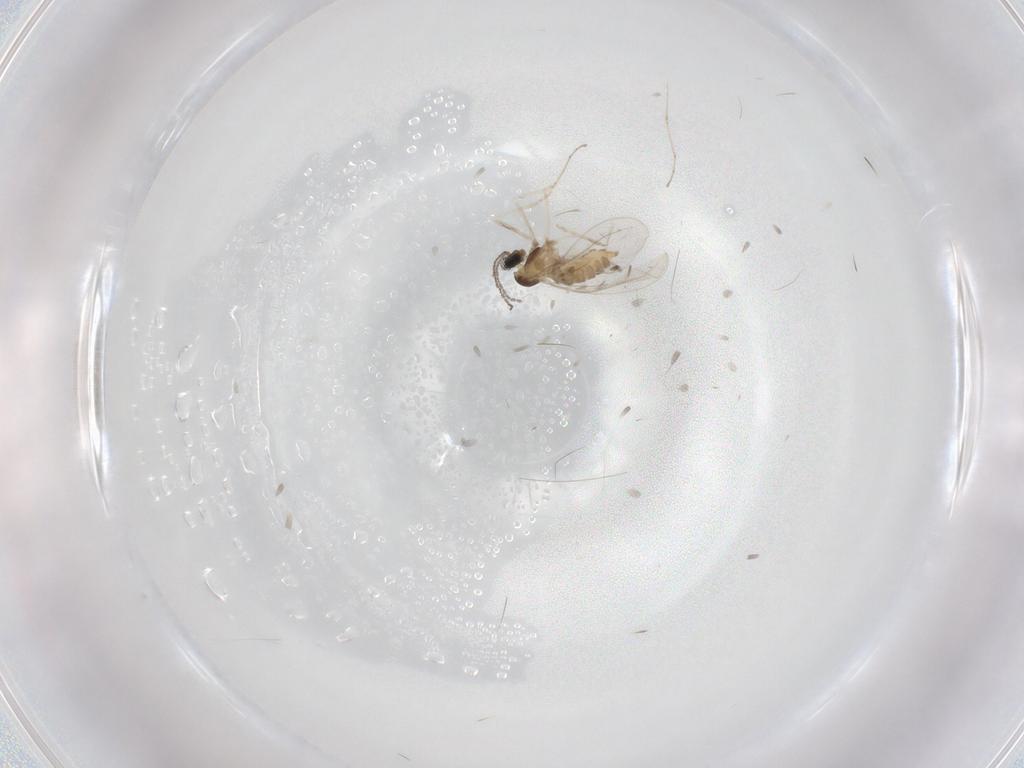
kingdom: Animalia
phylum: Arthropoda
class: Insecta
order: Diptera
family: Cecidomyiidae
